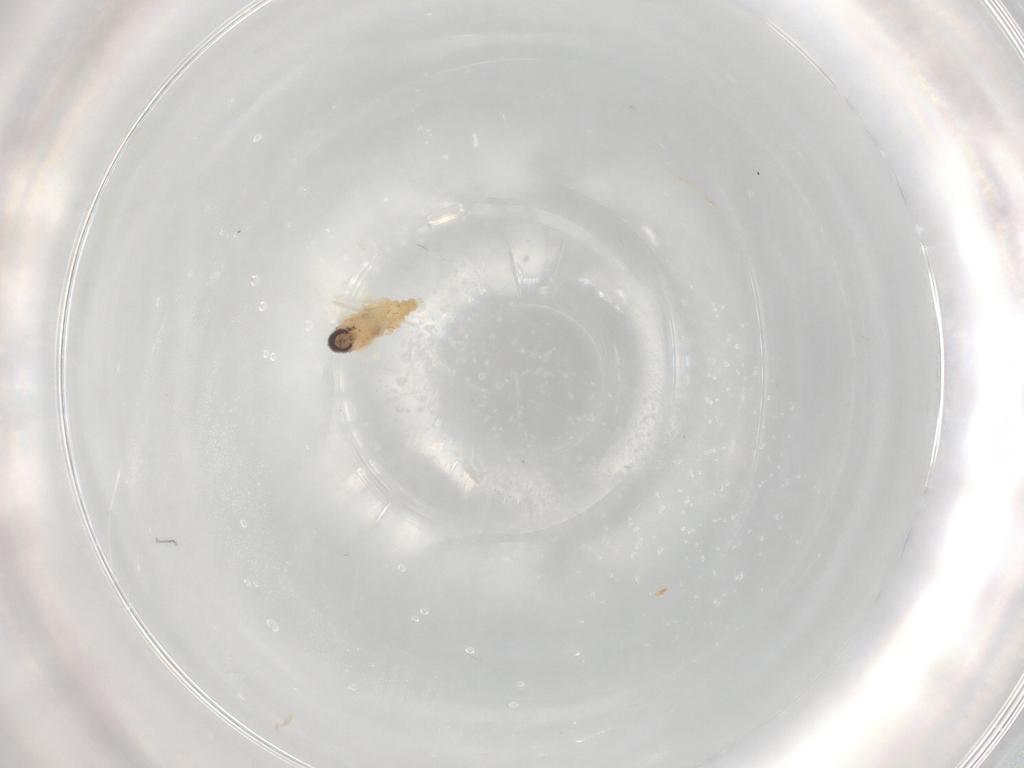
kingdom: Animalia
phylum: Arthropoda
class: Insecta
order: Diptera
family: Cecidomyiidae
